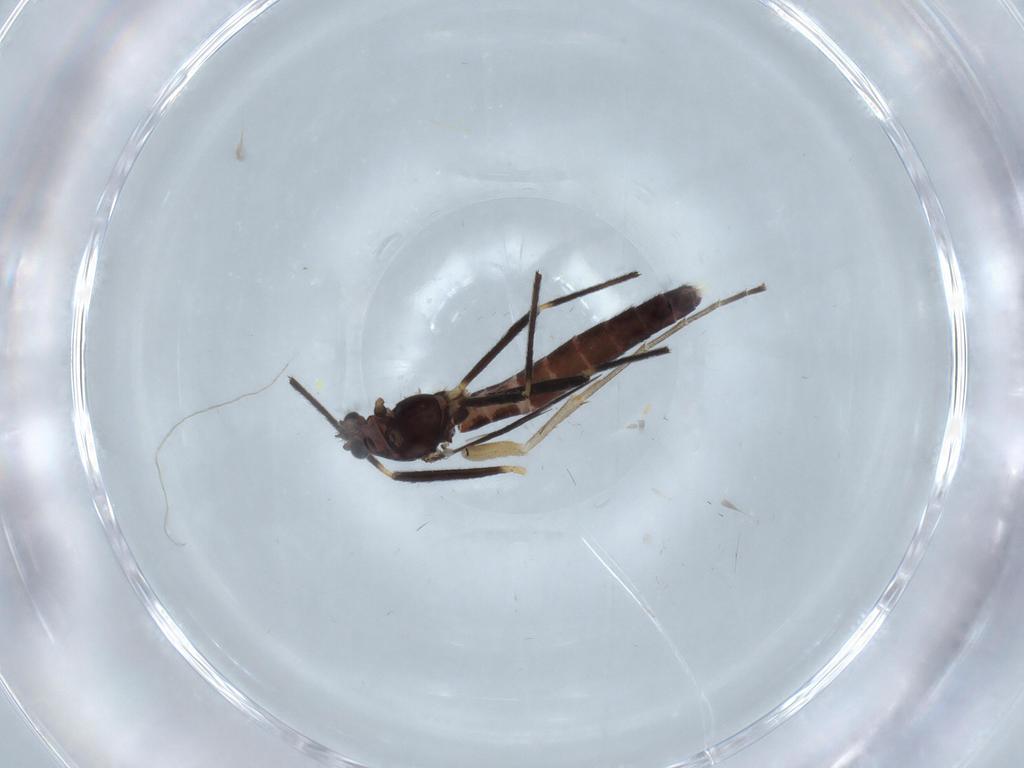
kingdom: Animalia
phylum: Arthropoda
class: Insecta
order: Diptera
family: Chironomidae
